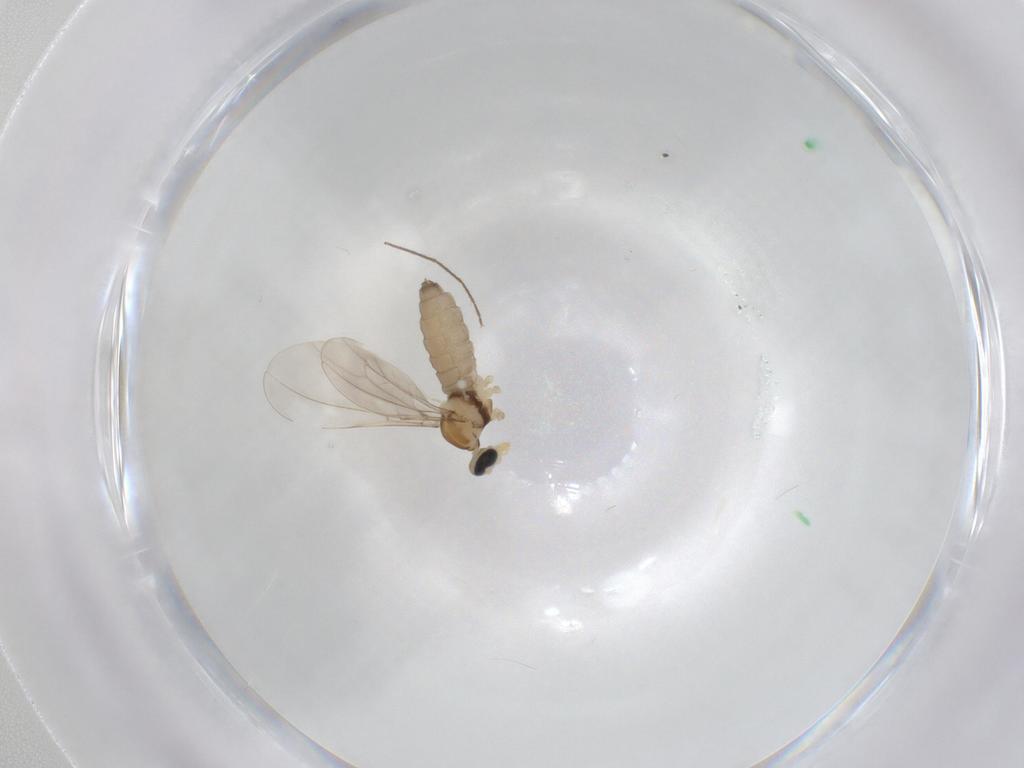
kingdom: Animalia
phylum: Arthropoda
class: Insecta
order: Diptera
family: Cecidomyiidae
